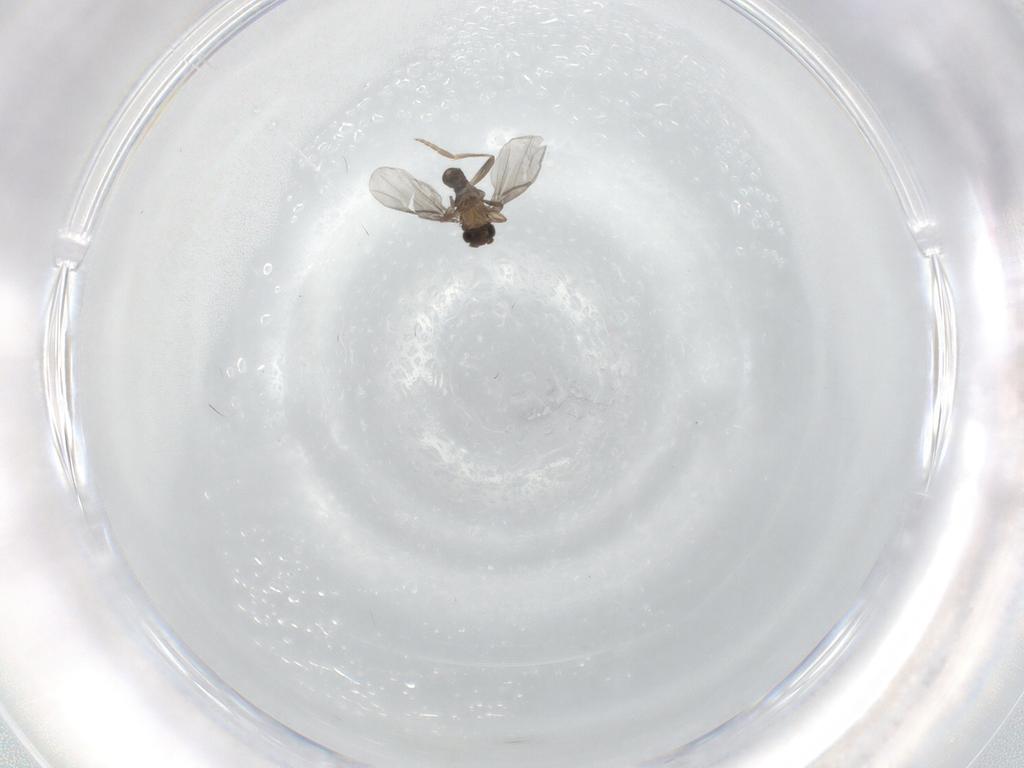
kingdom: Animalia
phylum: Arthropoda
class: Insecta
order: Diptera
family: Dolichopodidae
